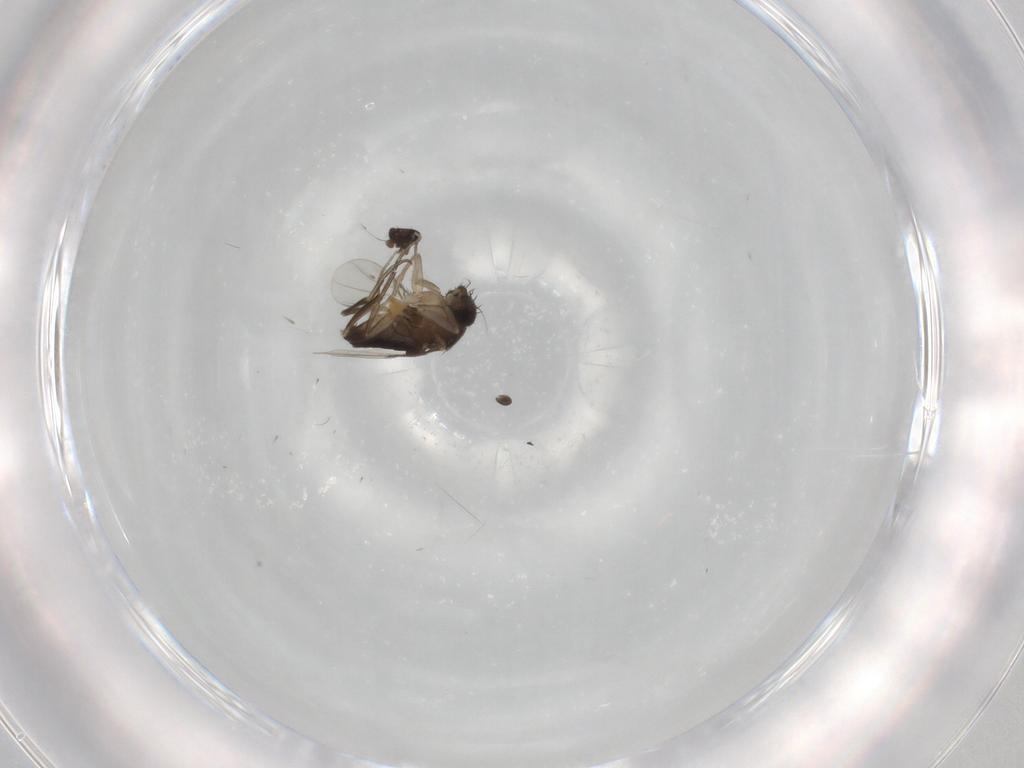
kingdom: Animalia
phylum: Arthropoda
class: Insecta
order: Diptera
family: Phoridae
